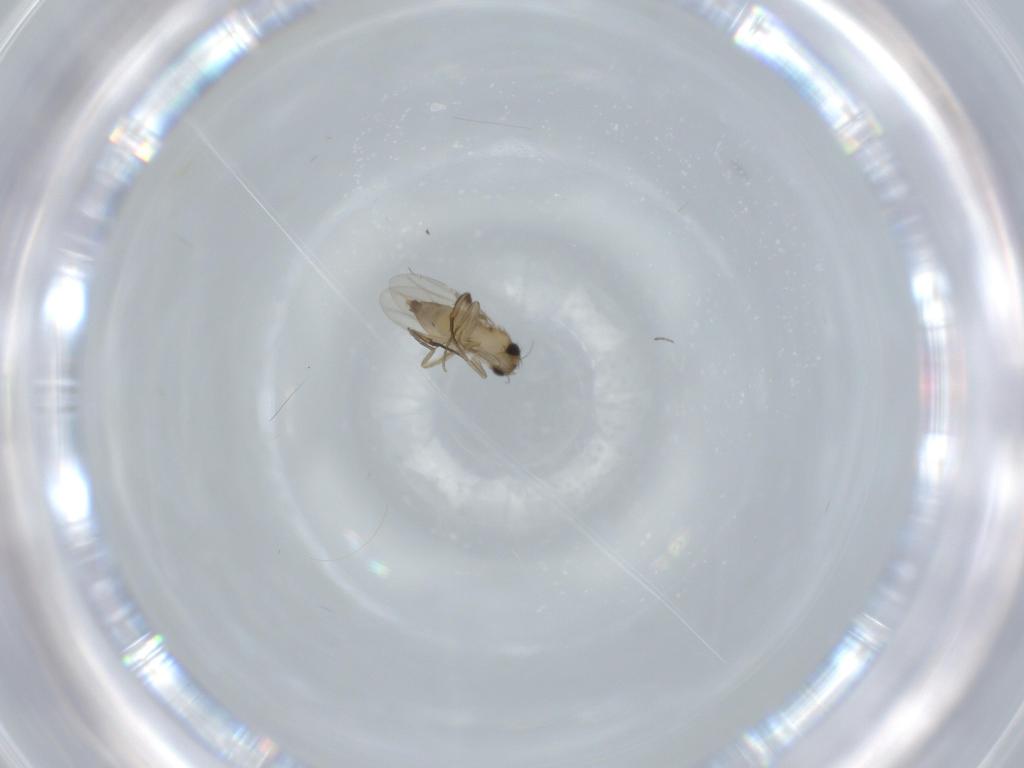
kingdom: Animalia
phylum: Arthropoda
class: Insecta
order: Diptera
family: Phoridae
